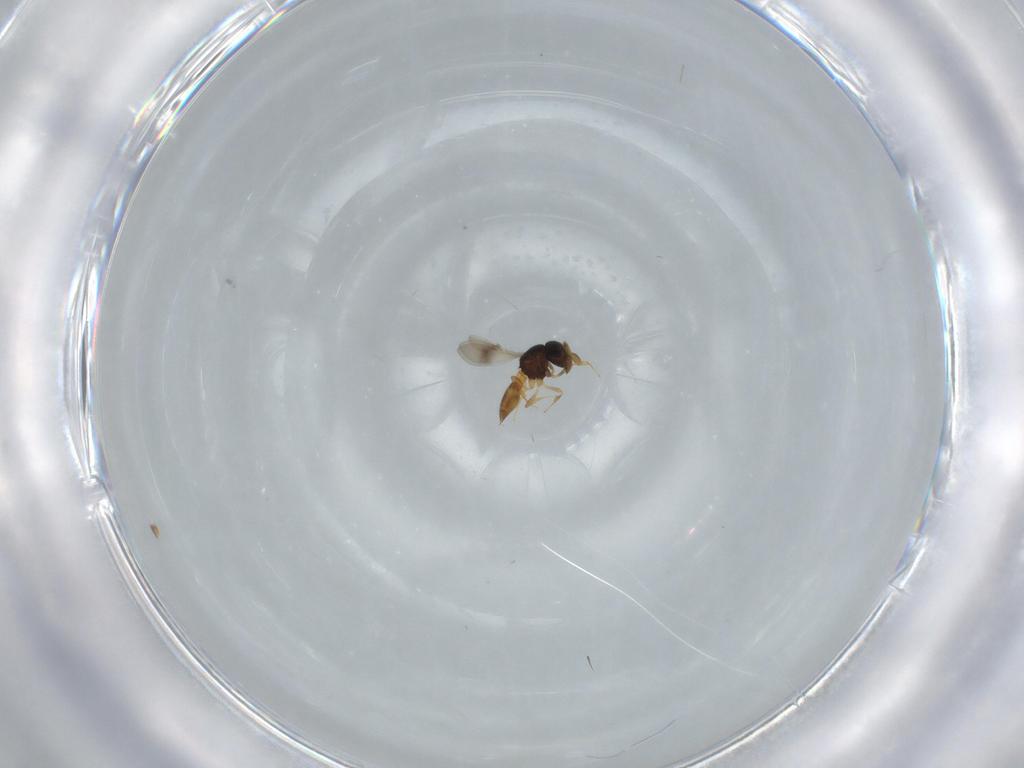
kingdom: Animalia
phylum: Arthropoda
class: Insecta
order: Hymenoptera
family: Scelionidae
